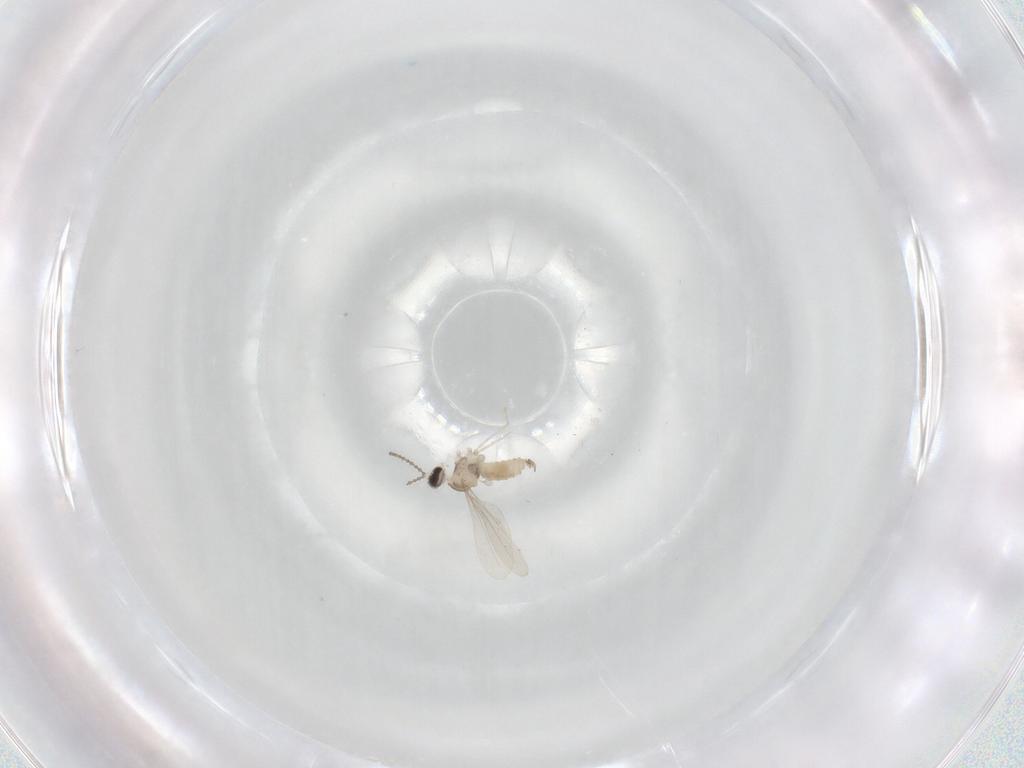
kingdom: Animalia
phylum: Arthropoda
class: Insecta
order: Diptera
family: Cecidomyiidae
